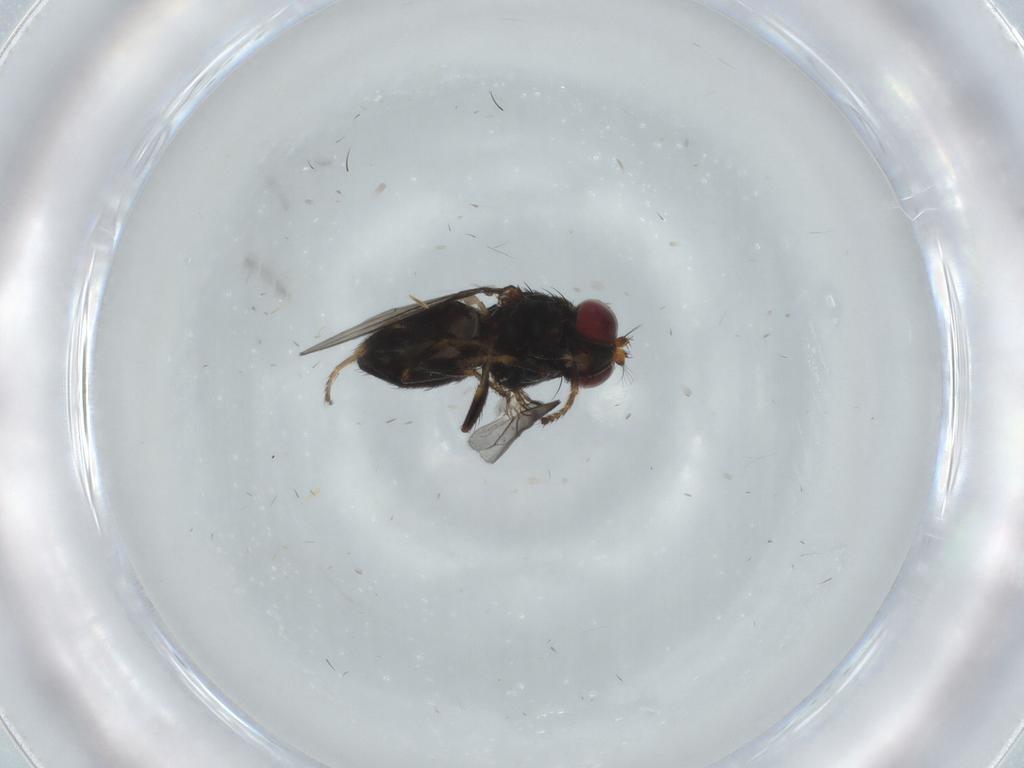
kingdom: Animalia
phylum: Arthropoda
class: Insecta
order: Diptera
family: Ephydridae
